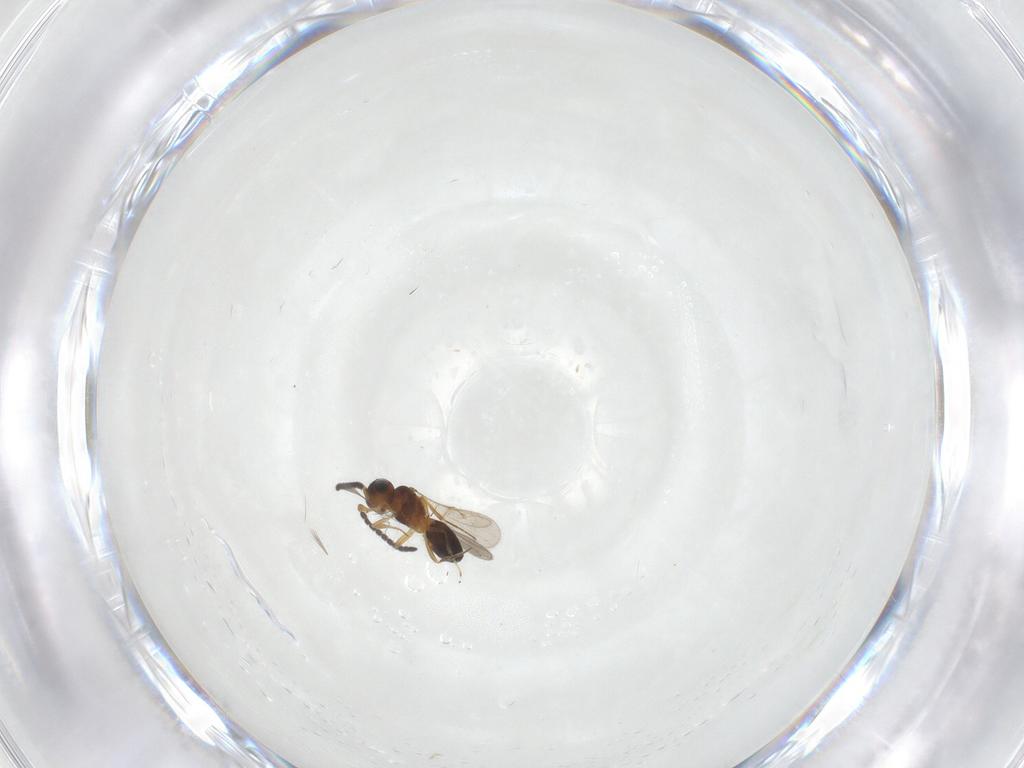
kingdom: Animalia
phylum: Arthropoda
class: Insecta
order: Hymenoptera
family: Scelionidae
